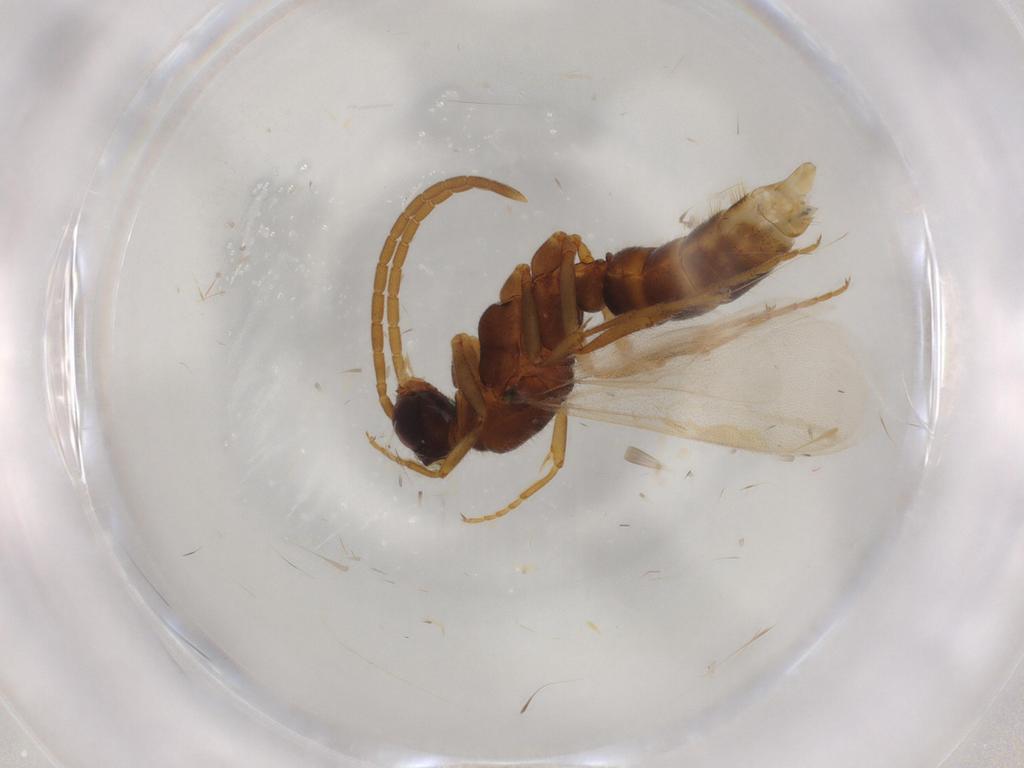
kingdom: Animalia
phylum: Arthropoda
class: Insecta
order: Hymenoptera
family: Formicidae
